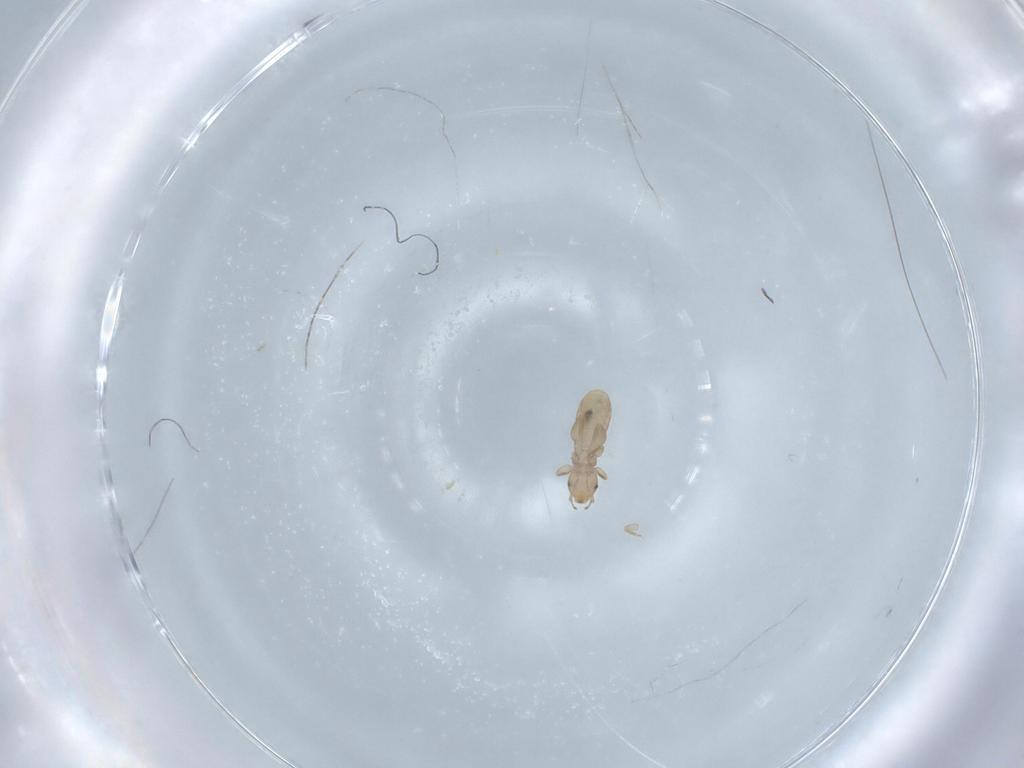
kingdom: Animalia
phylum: Arthropoda
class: Insecta
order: Psocodea
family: Liposcelididae
